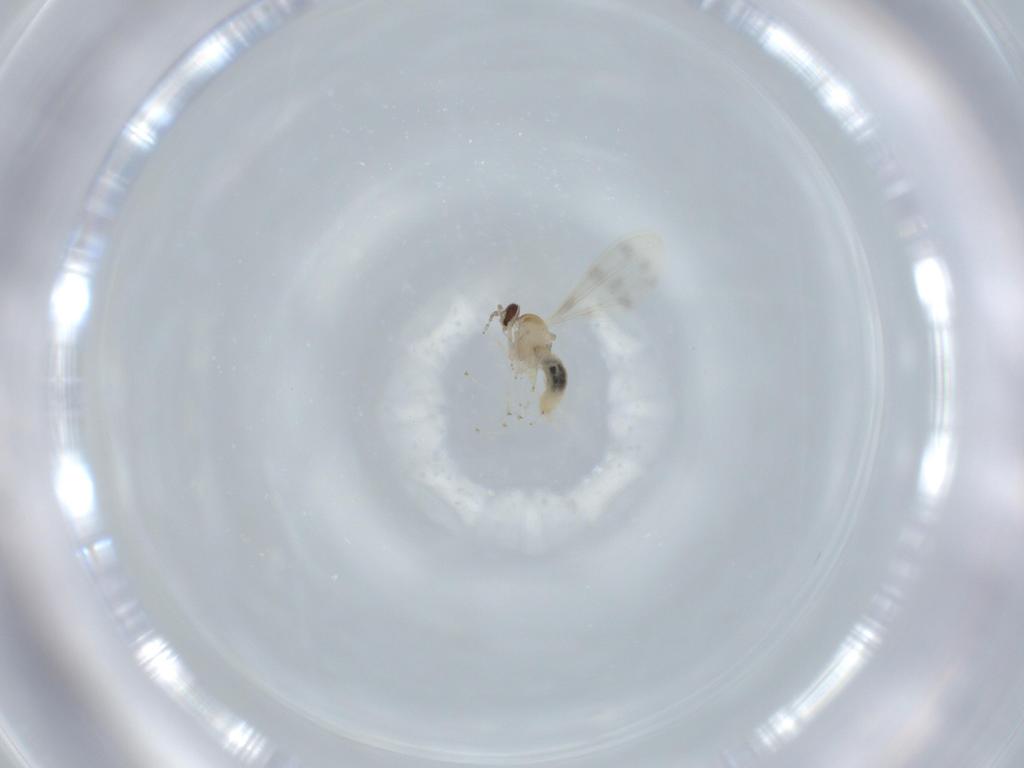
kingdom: Animalia
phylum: Arthropoda
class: Insecta
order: Diptera
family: Cecidomyiidae
